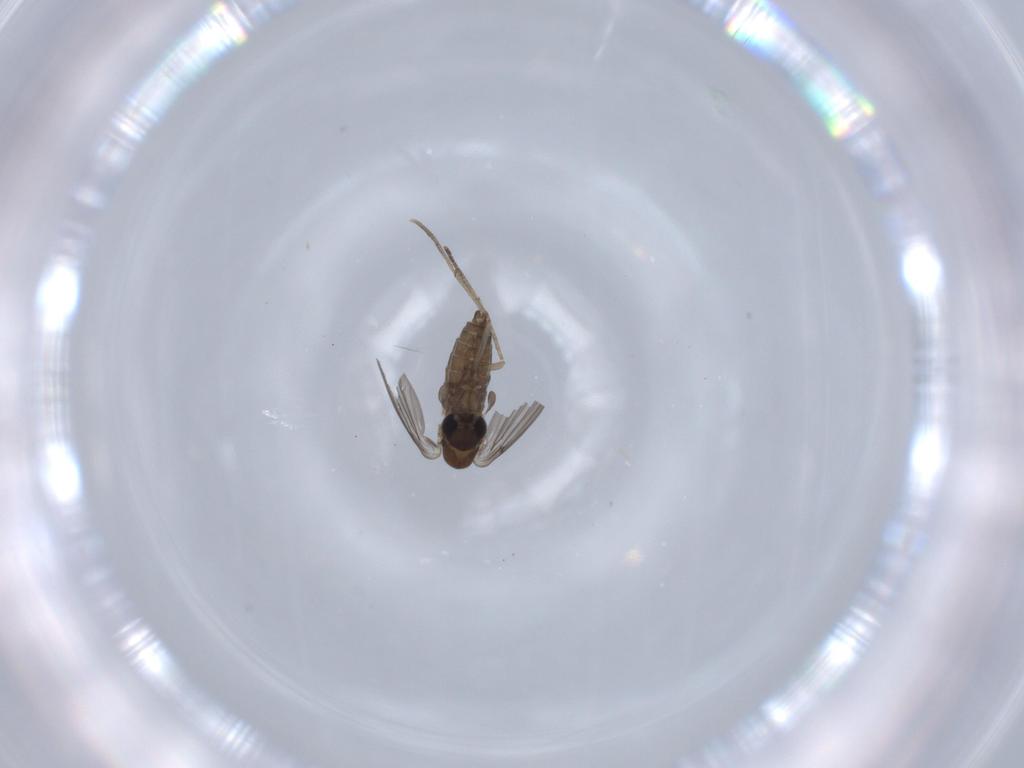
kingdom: Animalia
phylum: Arthropoda
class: Insecta
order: Diptera
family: Psychodidae
